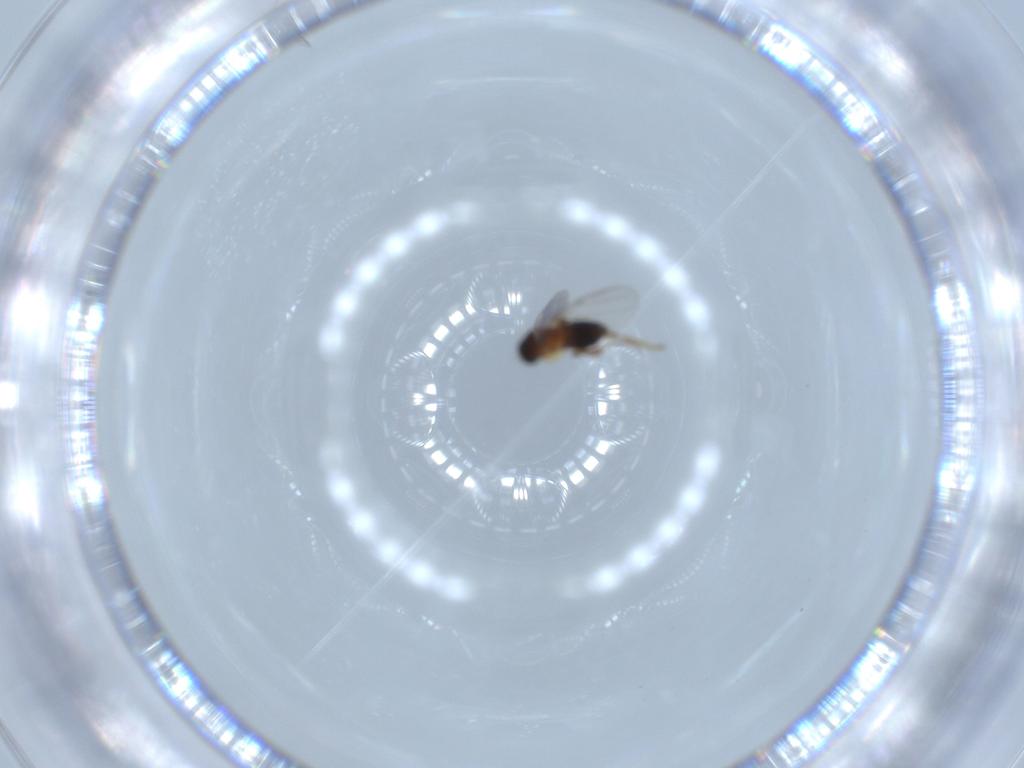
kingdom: Animalia
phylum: Arthropoda
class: Insecta
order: Diptera
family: Phoridae
